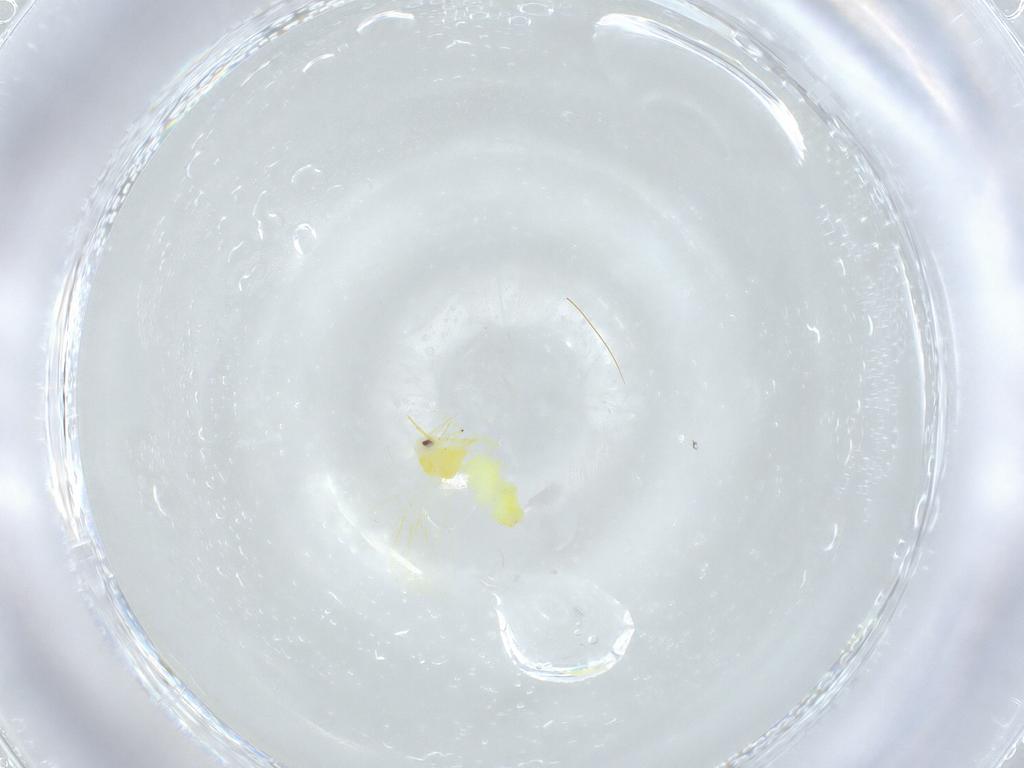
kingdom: Animalia
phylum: Arthropoda
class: Insecta
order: Hemiptera
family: Aleyrodidae
